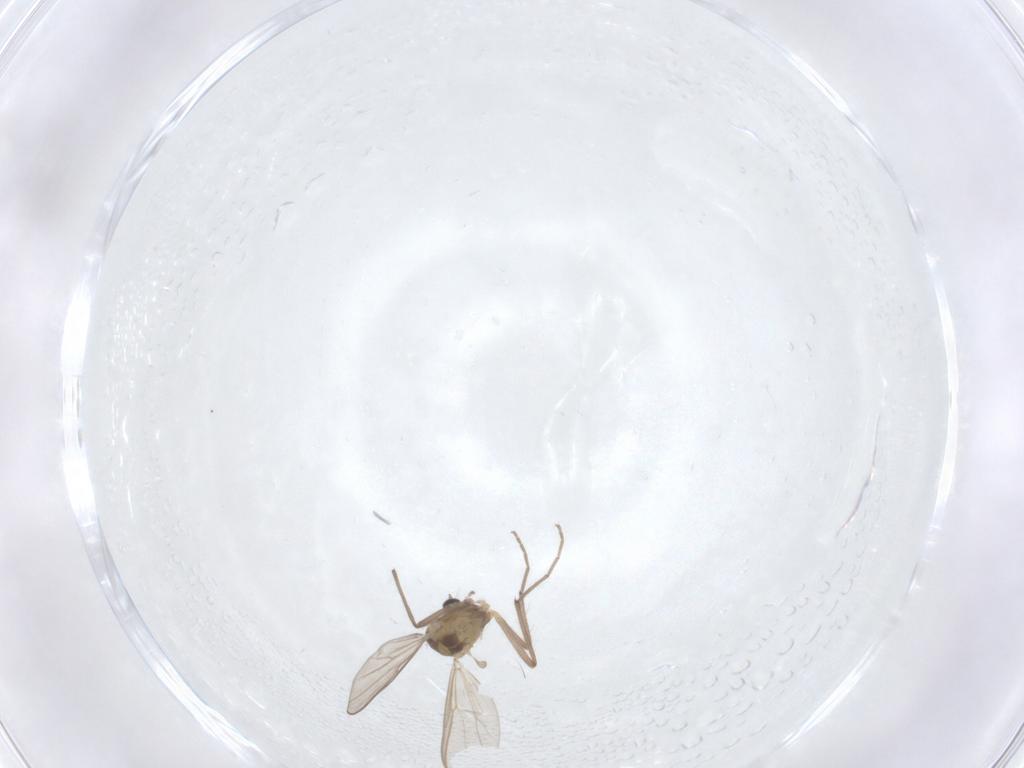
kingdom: Animalia
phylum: Arthropoda
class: Insecta
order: Diptera
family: Chironomidae
